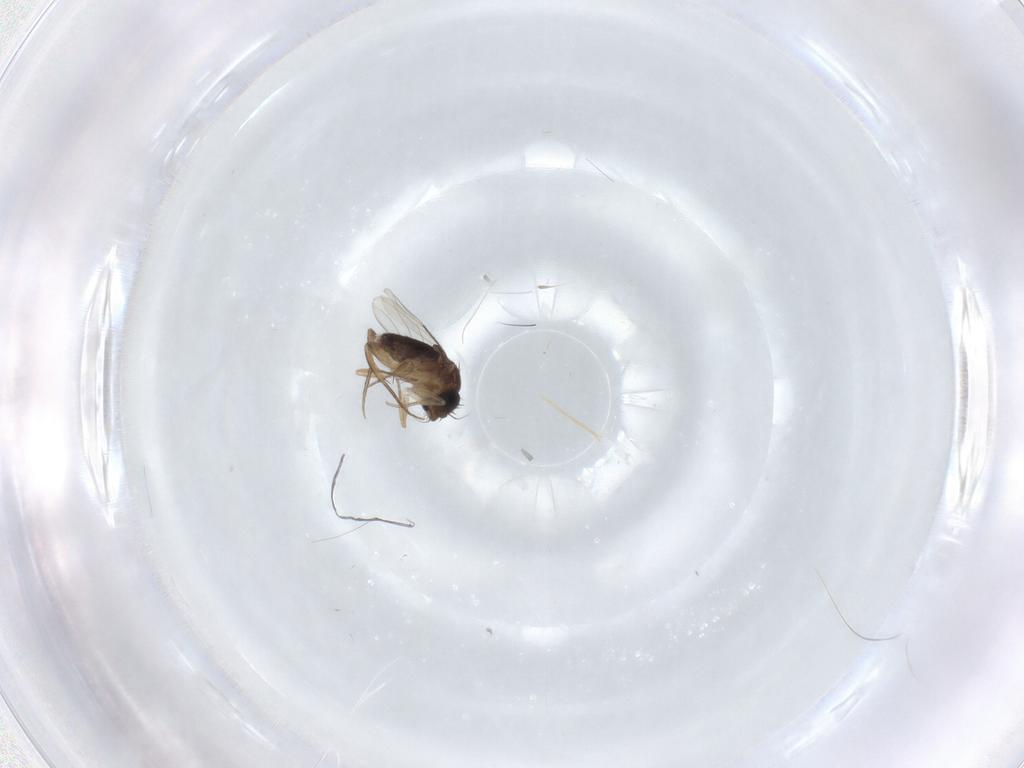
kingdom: Animalia
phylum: Arthropoda
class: Insecta
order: Diptera
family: Phoridae
